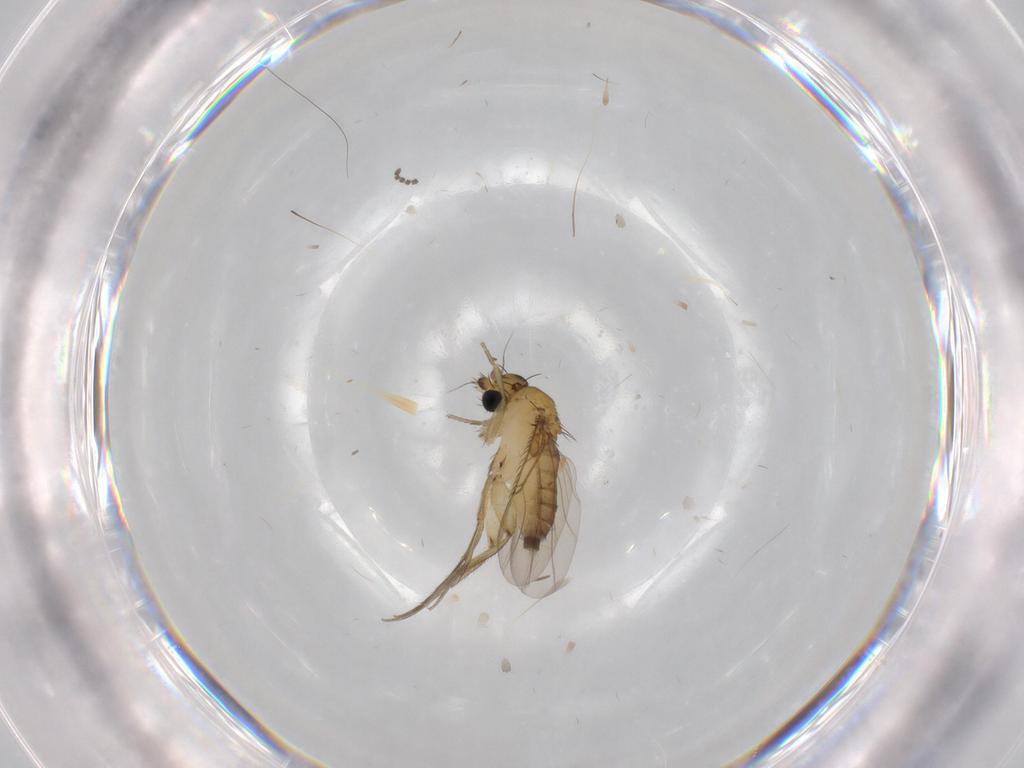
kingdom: Animalia
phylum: Arthropoda
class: Insecta
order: Diptera
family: Phoridae
